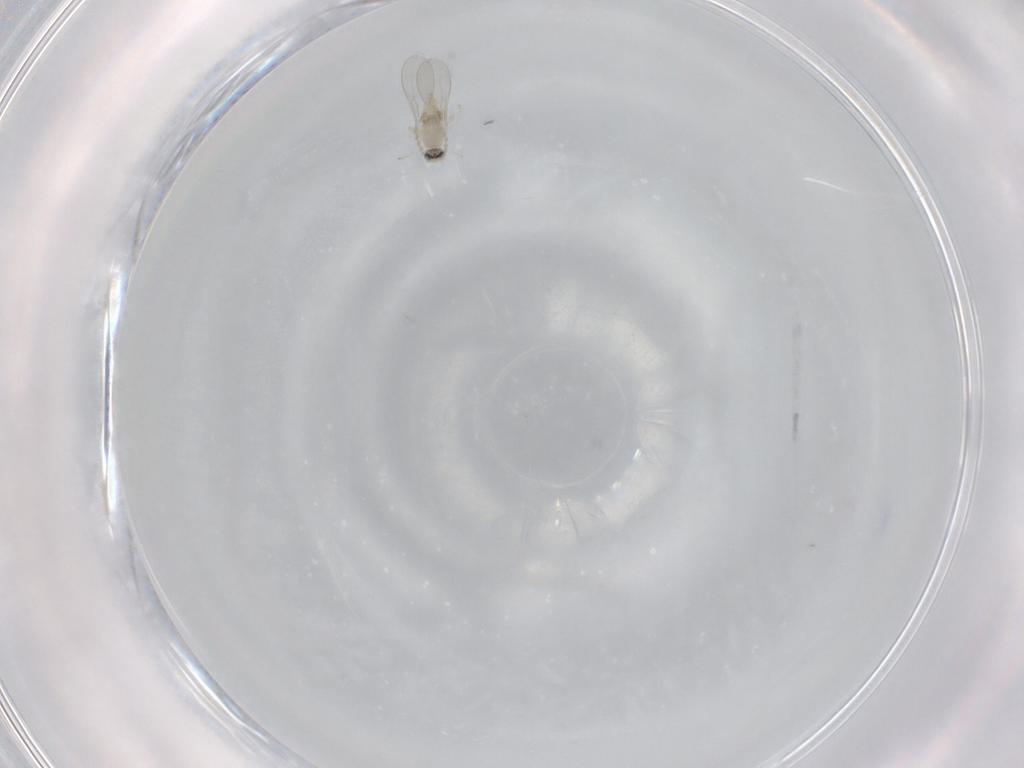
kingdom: Animalia
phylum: Arthropoda
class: Insecta
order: Diptera
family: Cecidomyiidae
